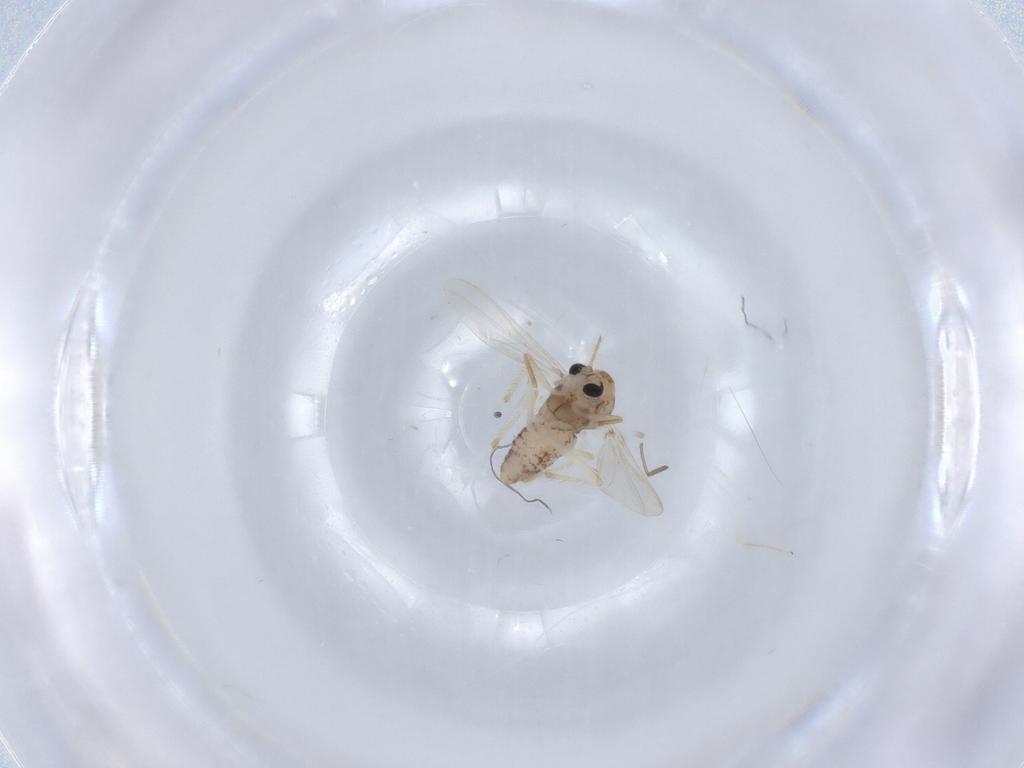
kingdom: Animalia
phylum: Arthropoda
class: Insecta
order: Diptera
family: Chironomidae
